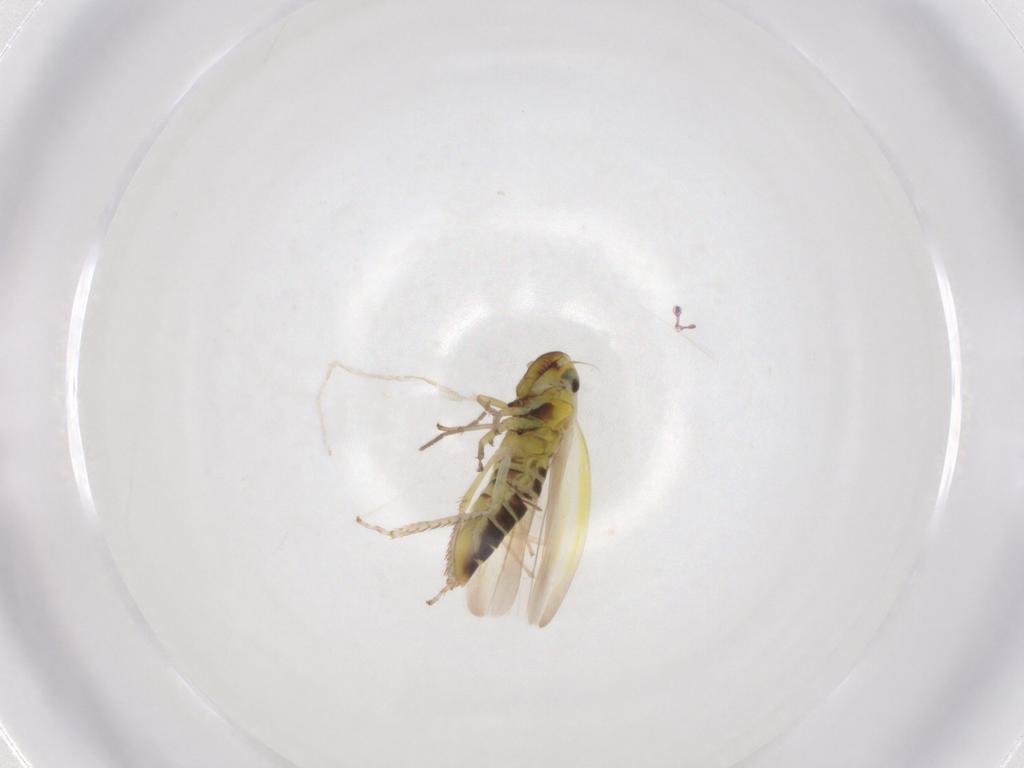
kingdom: Animalia
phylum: Arthropoda
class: Insecta
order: Hemiptera
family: Cicadellidae
